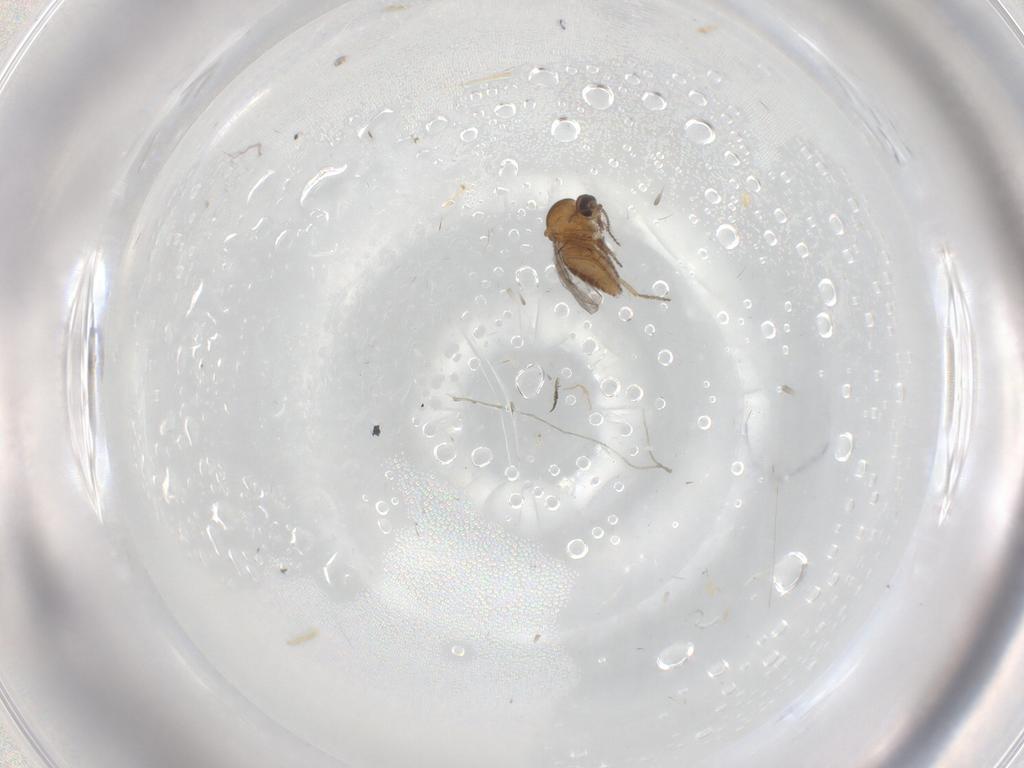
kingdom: Animalia
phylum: Arthropoda
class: Insecta
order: Diptera
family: Ceratopogonidae
